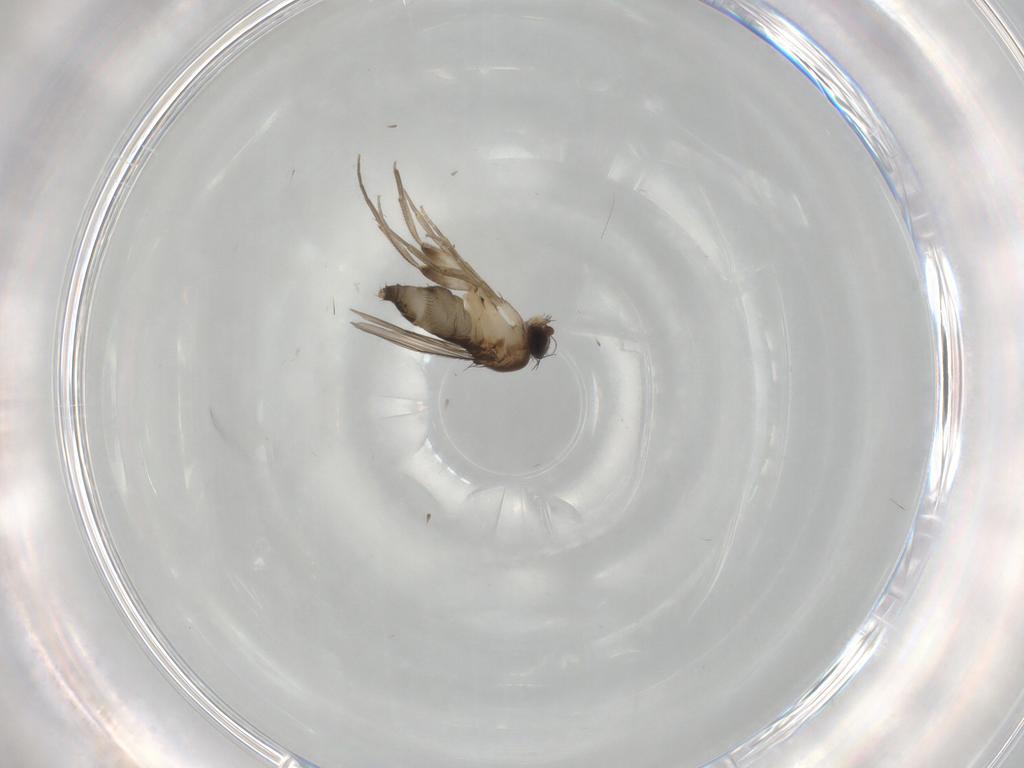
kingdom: Animalia
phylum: Arthropoda
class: Insecta
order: Diptera
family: Phoridae
